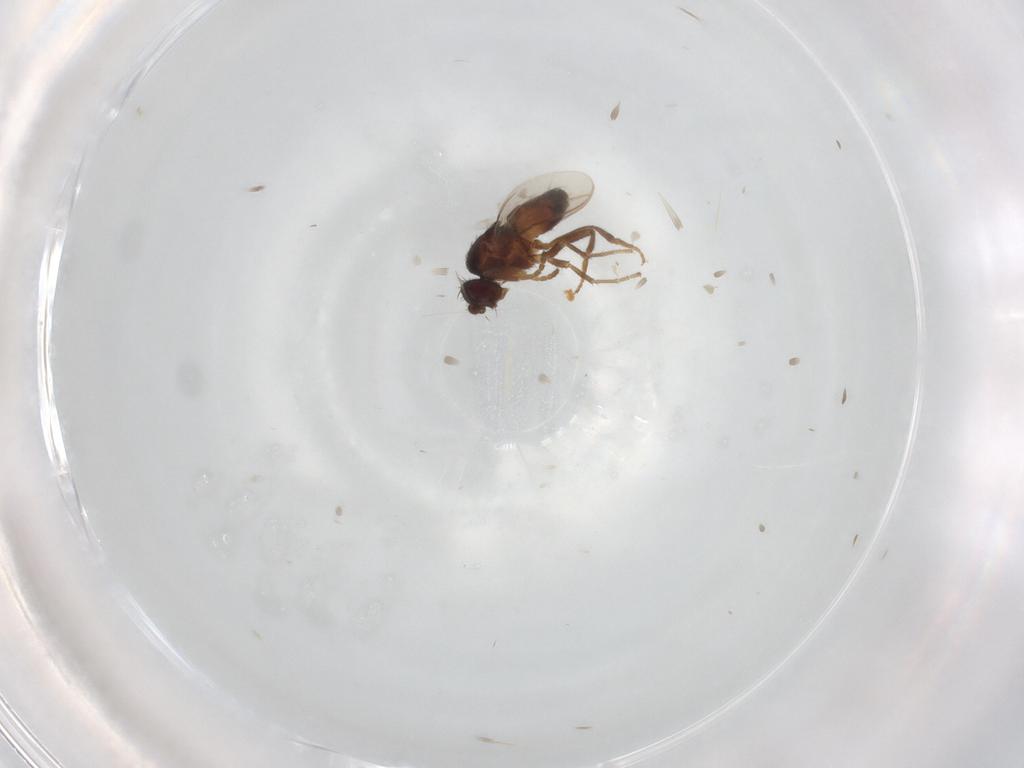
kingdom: Animalia
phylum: Arthropoda
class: Insecta
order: Diptera
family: Sphaeroceridae
